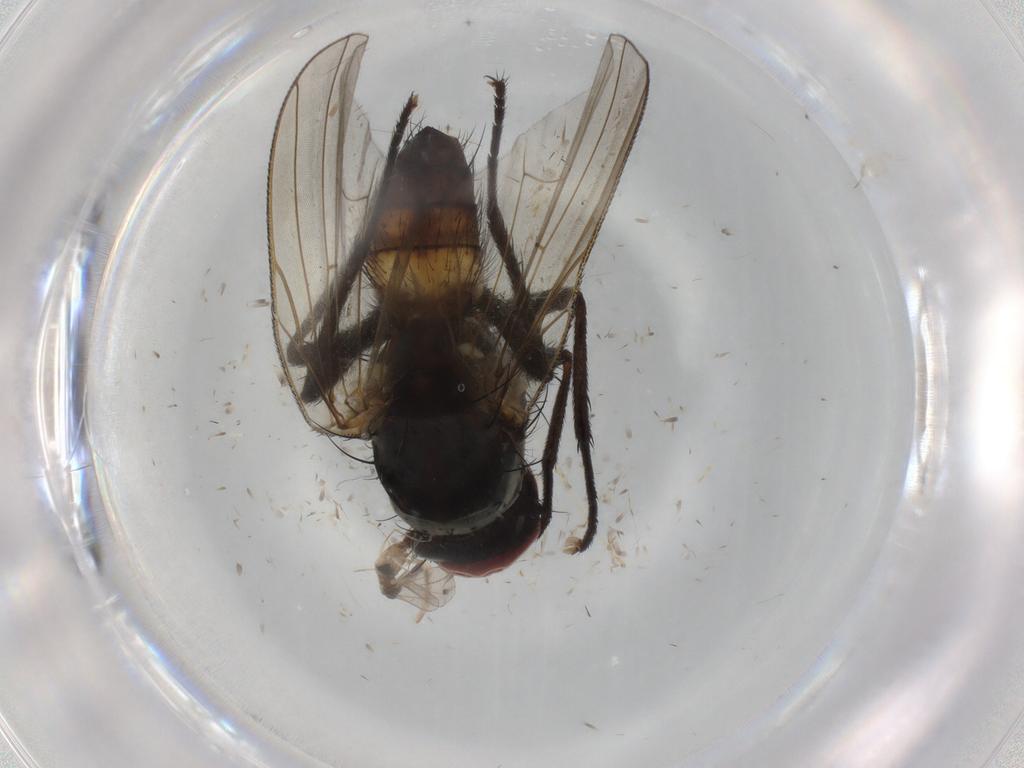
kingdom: Animalia
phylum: Arthropoda
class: Insecta
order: Diptera
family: Anthomyiidae
